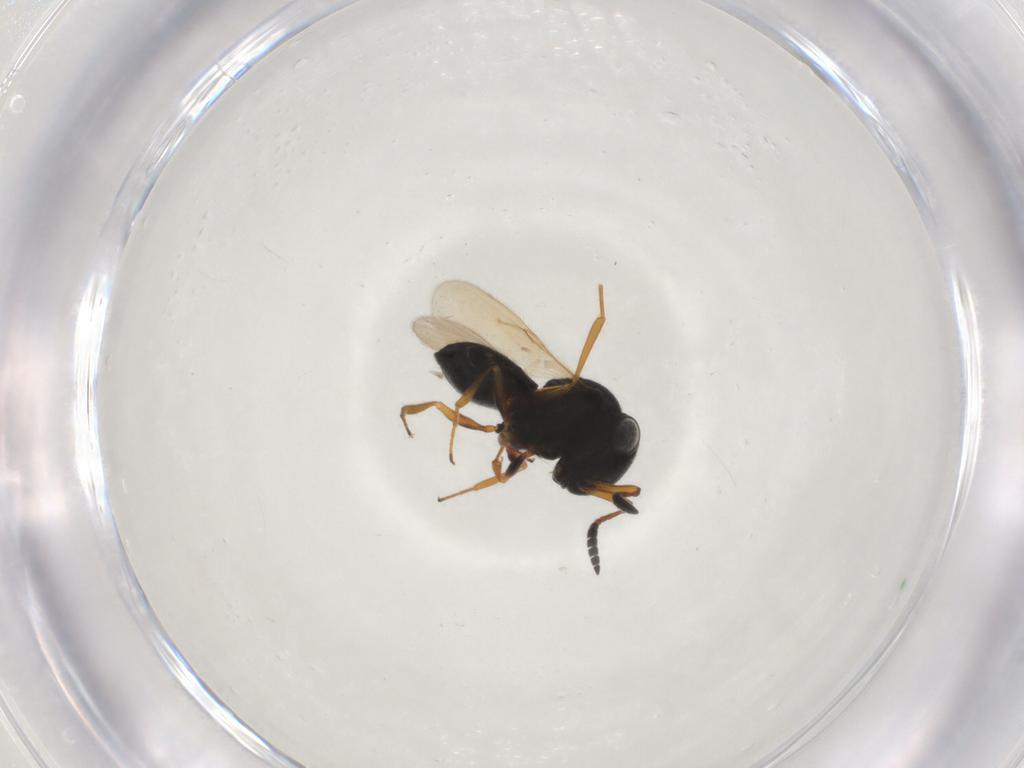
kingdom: Animalia
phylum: Arthropoda
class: Insecta
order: Hymenoptera
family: Scelionidae
